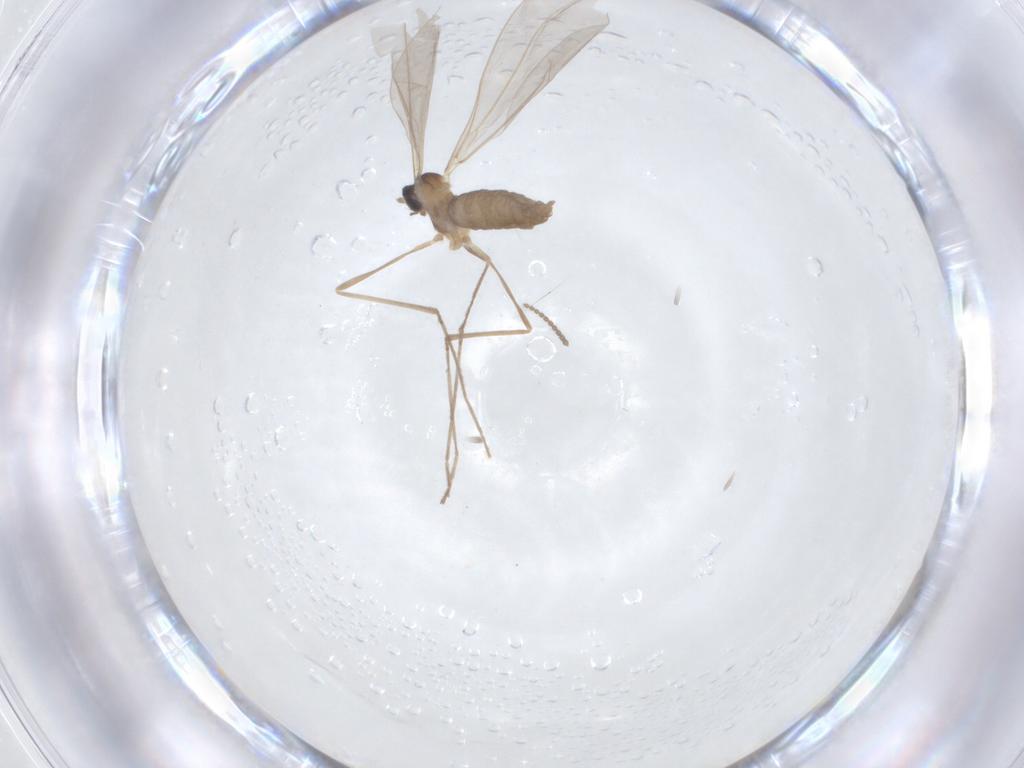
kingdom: Animalia
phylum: Arthropoda
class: Insecta
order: Diptera
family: Cecidomyiidae
